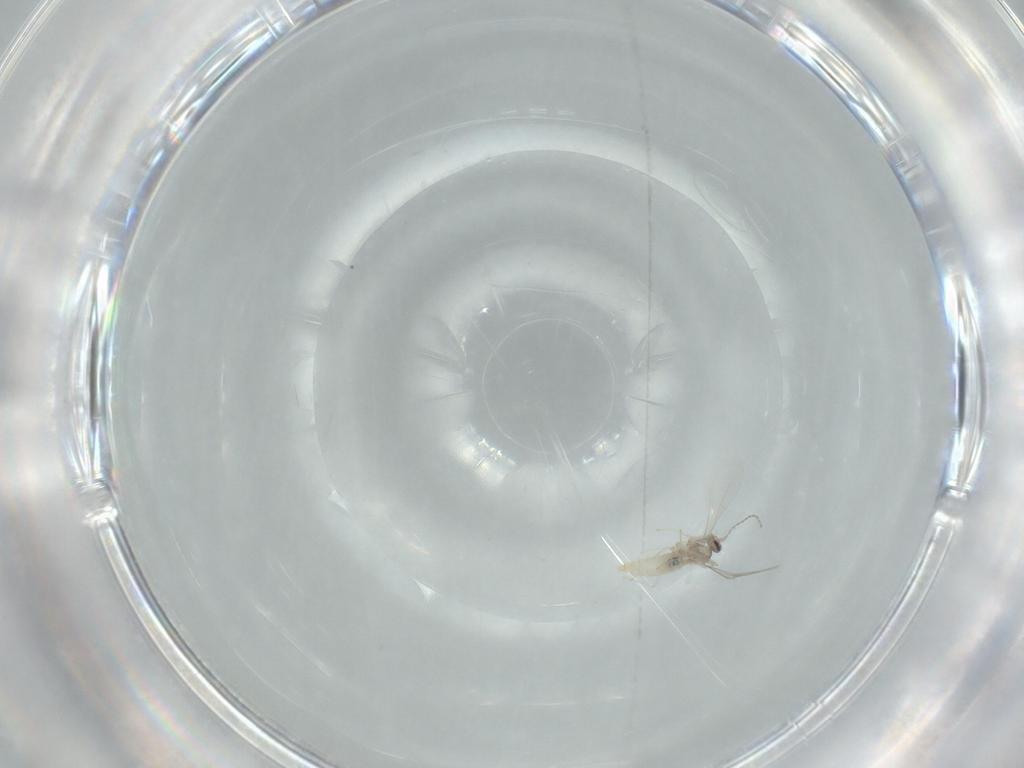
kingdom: Animalia
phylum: Arthropoda
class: Insecta
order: Diptera
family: Cecidomyiidae
